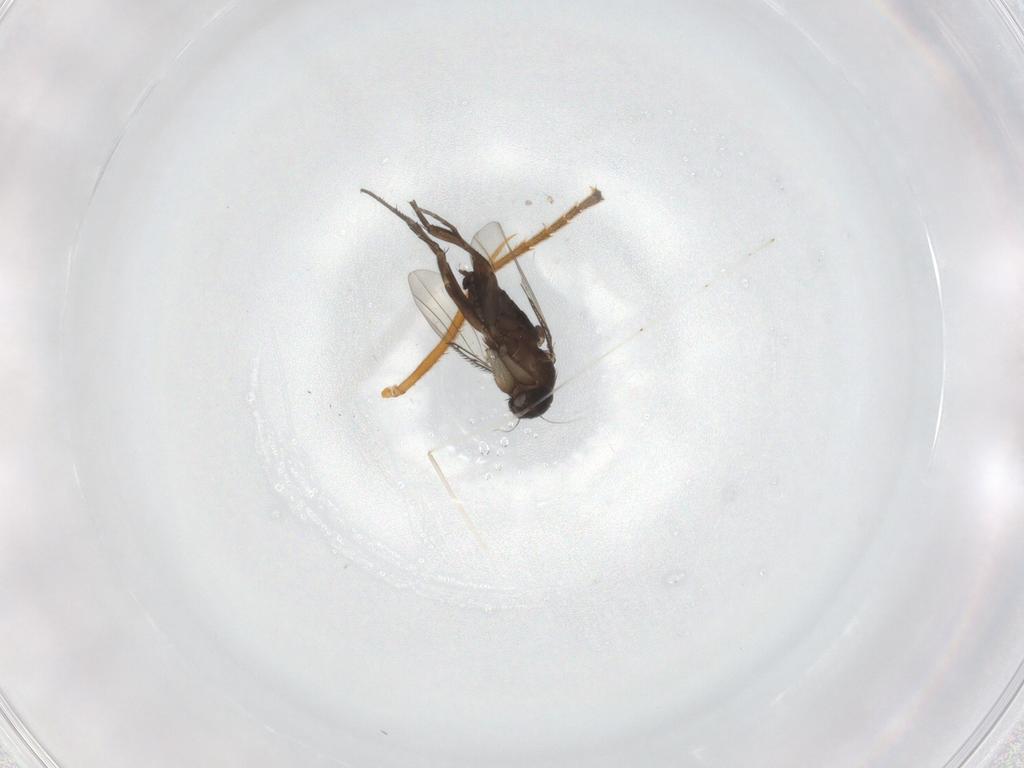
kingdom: Animalia
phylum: Arthropoda
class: Insecta
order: Diptera
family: Phoridae
